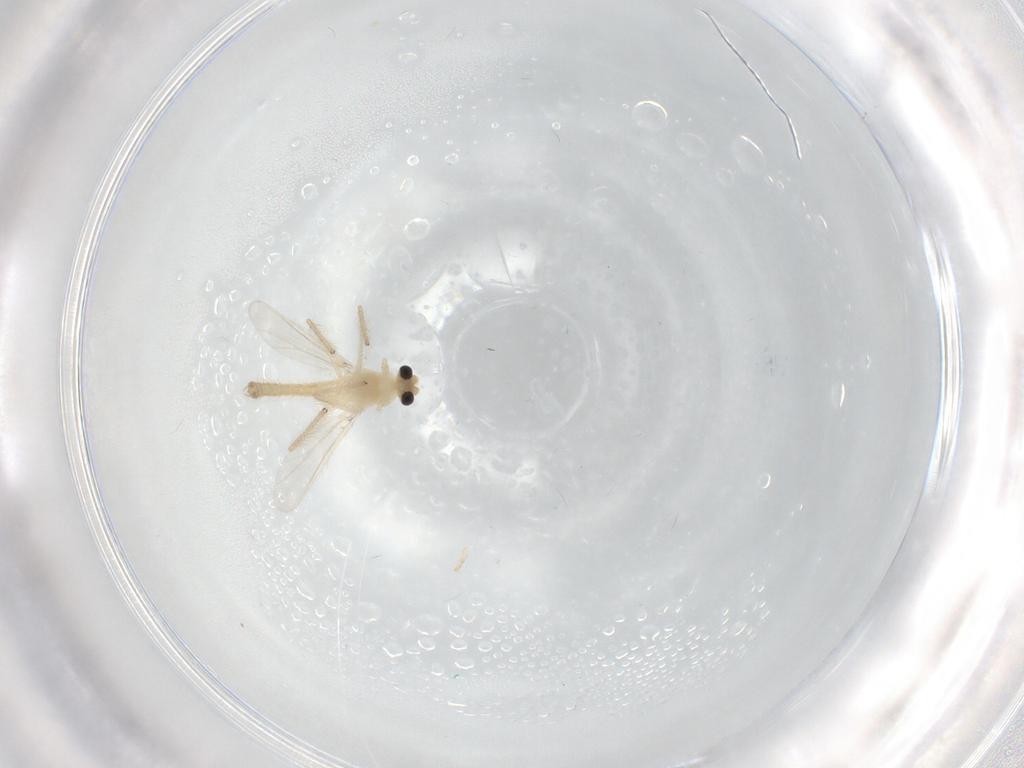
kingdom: Animalia
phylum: Arthropoda
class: Insecta
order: Diptera
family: Chironomidae
